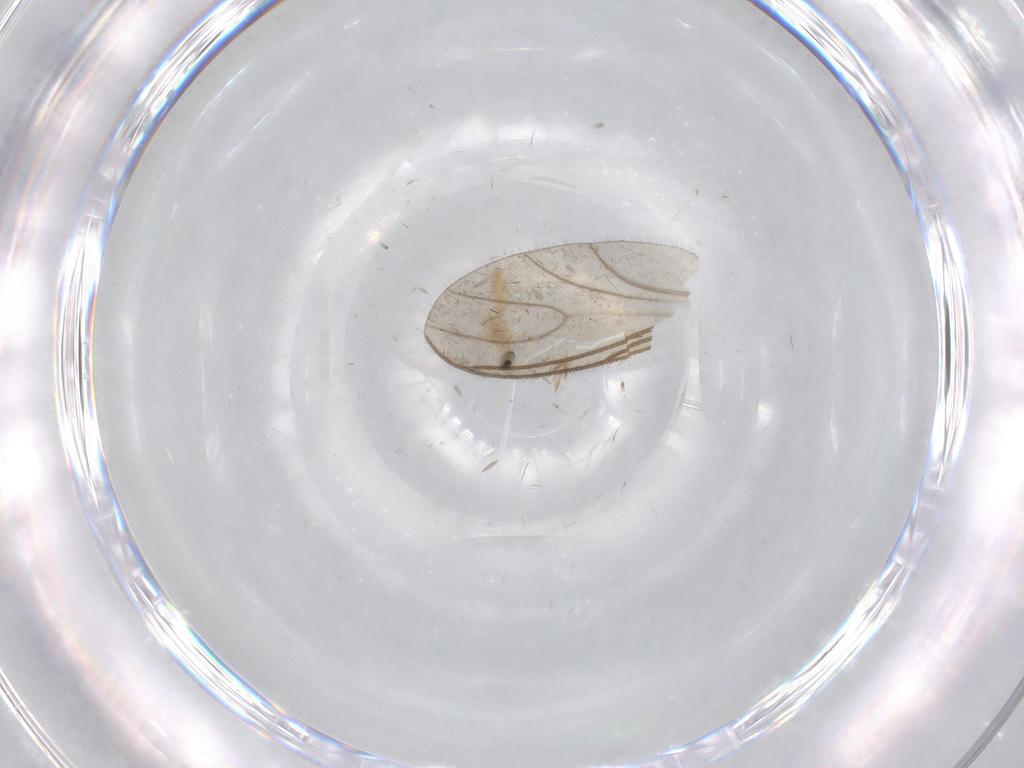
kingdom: Animalia
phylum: Arthropoda
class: Insecta
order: Diptera
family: Cecidomyiidae
